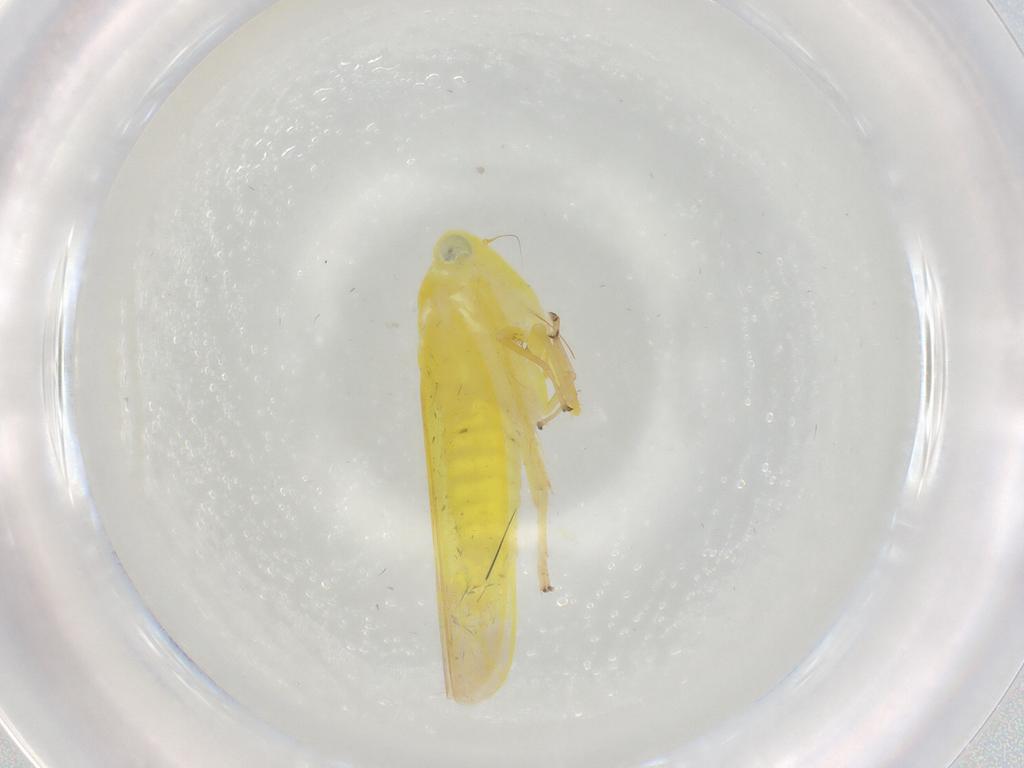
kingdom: Animalia
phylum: Arthropoda
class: Insecta
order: Hemiptera
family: Cicadellidae
